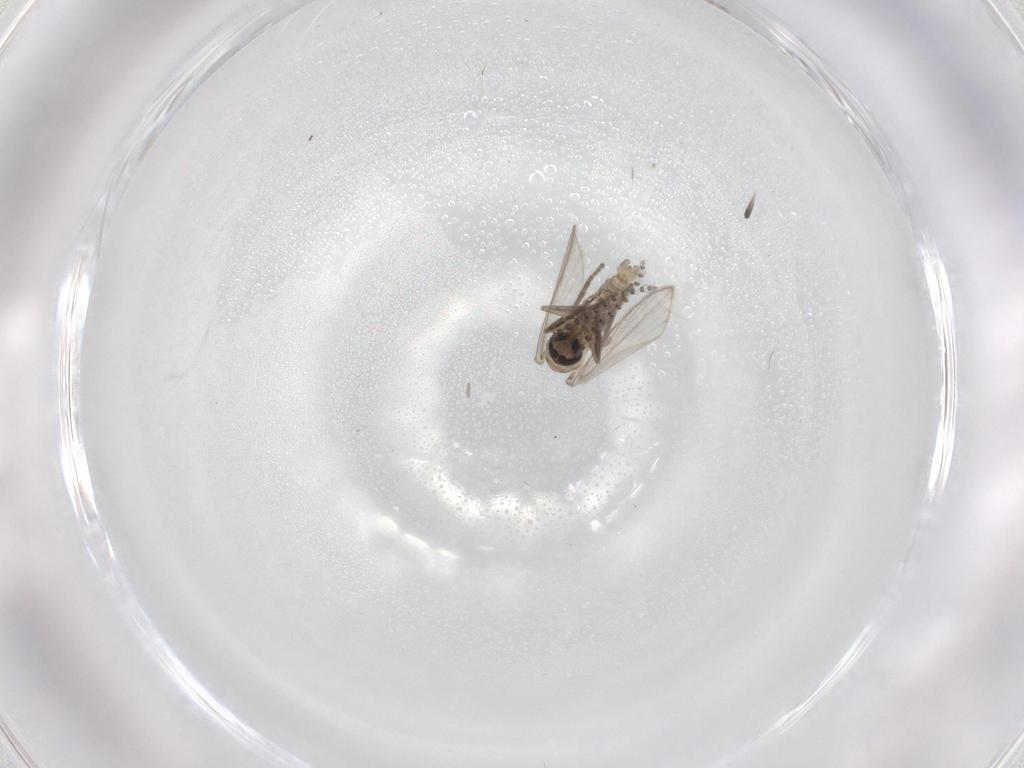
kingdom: Animalia
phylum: Arthropoda
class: Insecta
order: Diptera
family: Psychodidae
